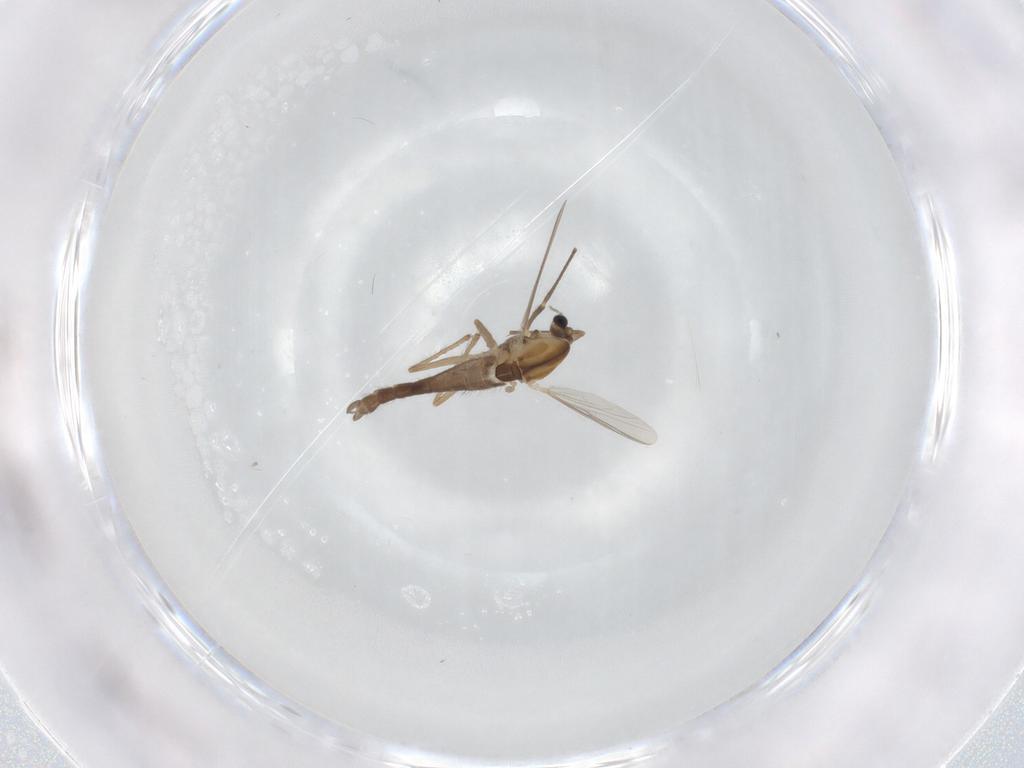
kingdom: Animalia
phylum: Arthropoda
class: Insecta
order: Diptera
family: Chironomidae
